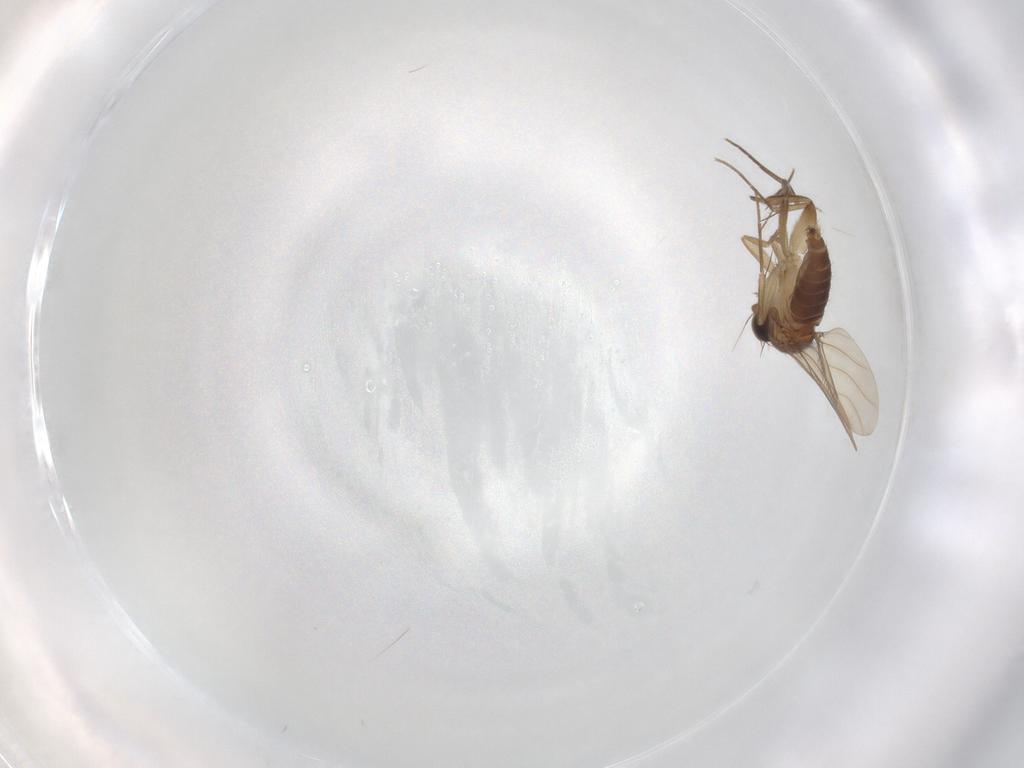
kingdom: Animalia
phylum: Arthropoda
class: Insecta
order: Diptera
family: Phoridae
